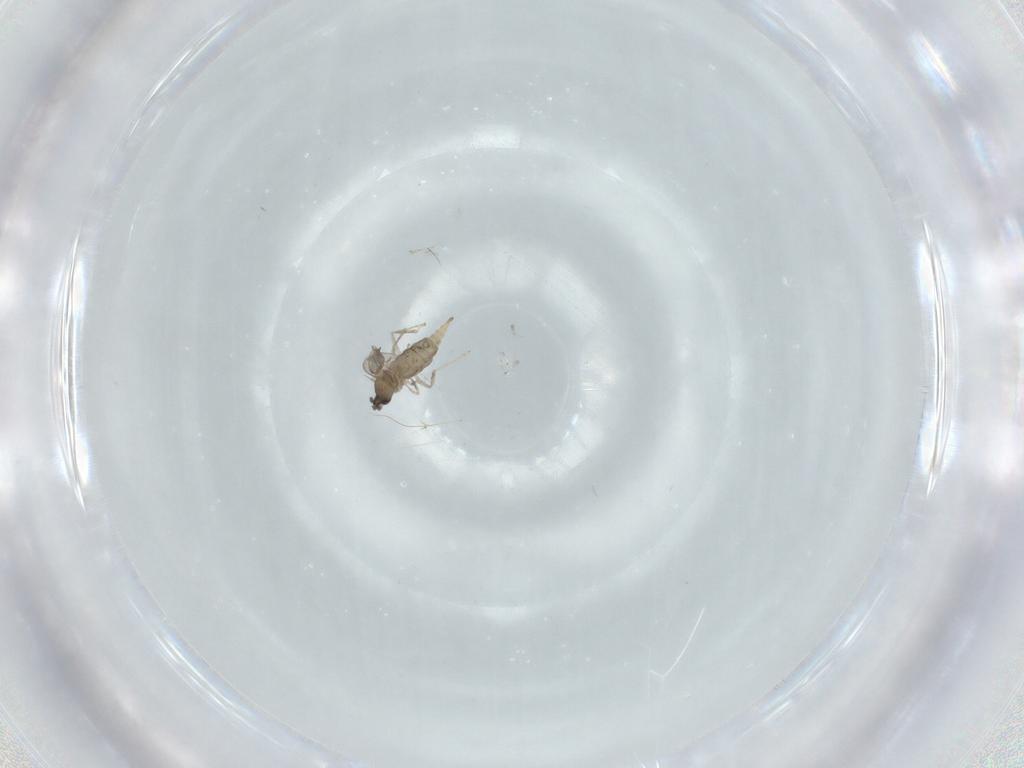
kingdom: Animalia
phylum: Arthropoda
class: Insecta
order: Diptera
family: Cecidomyiidae
